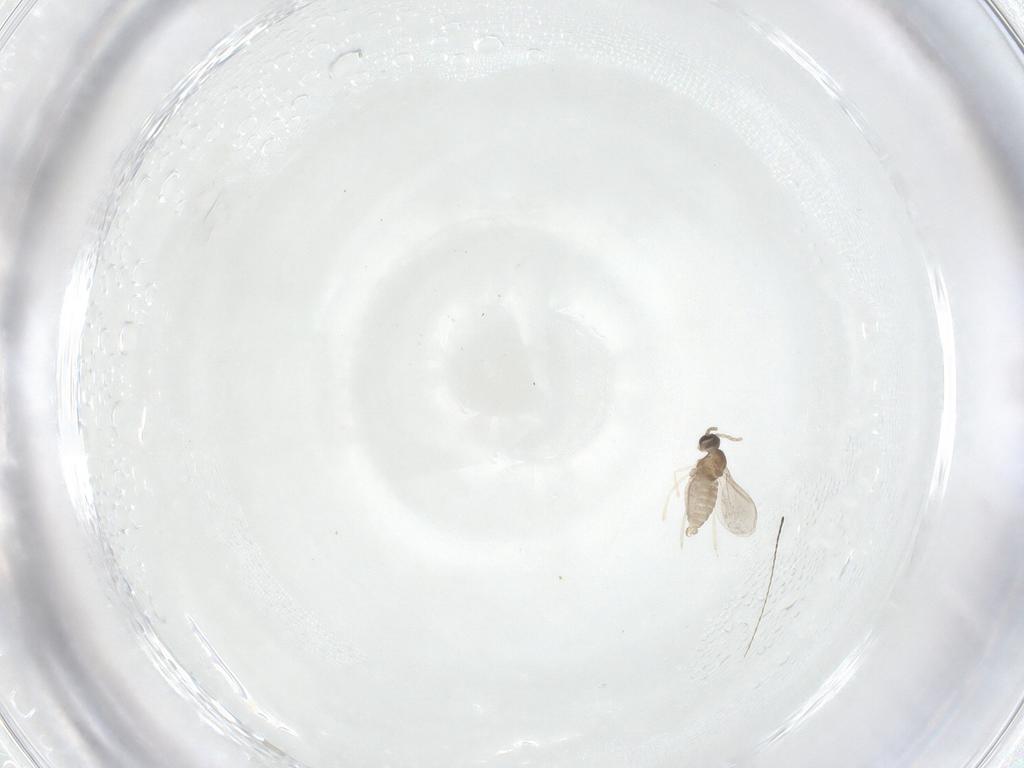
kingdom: Animalia
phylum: Arthropoda
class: Insecta
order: Diptera
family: Cecidomyiidae
